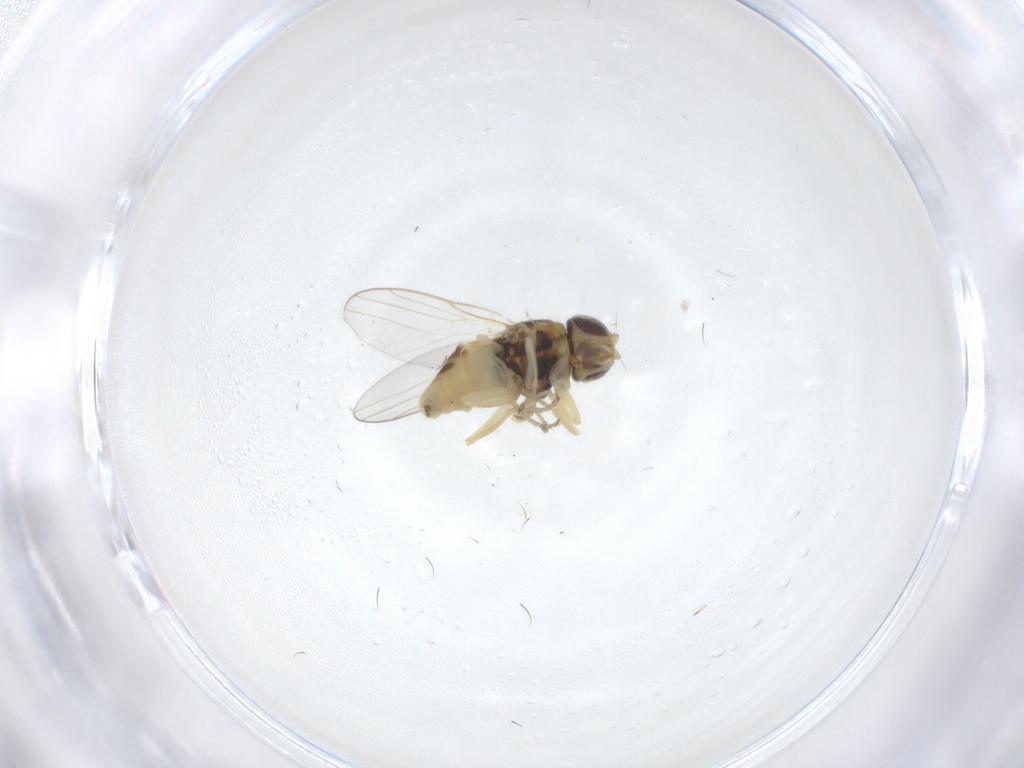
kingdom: Animalia
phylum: Arthropoda
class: Insecta
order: Diptera
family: Chloropidae
